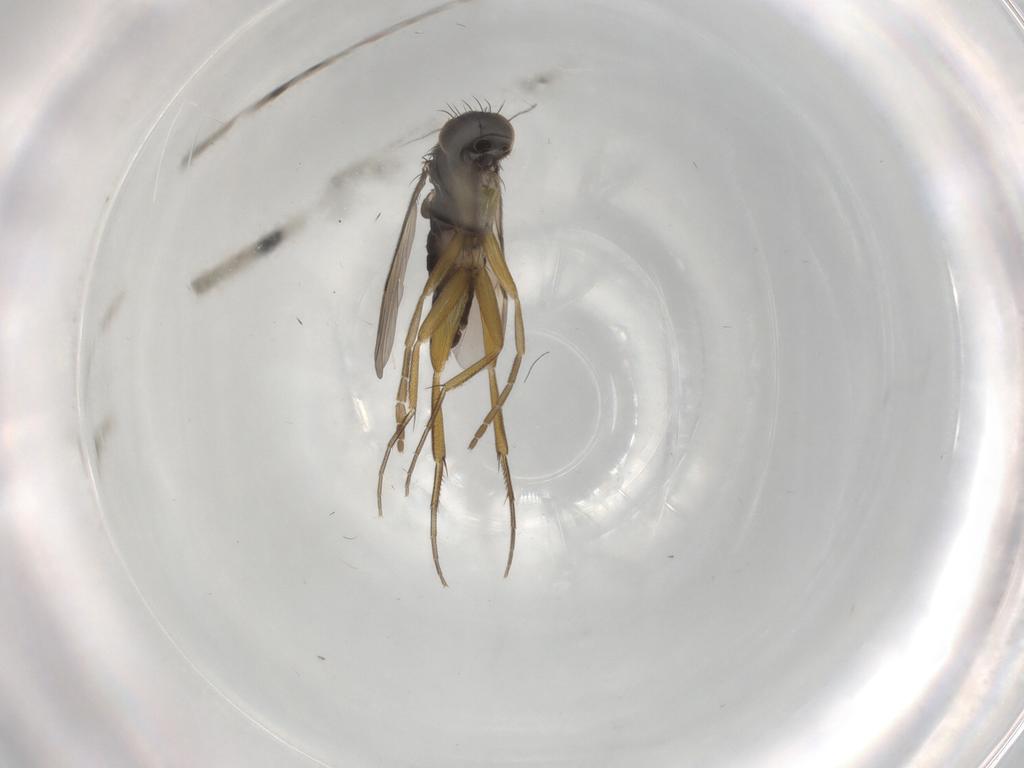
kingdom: Animalia
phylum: Arthropoda
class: Insecta
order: Diptera
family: Phoridae
